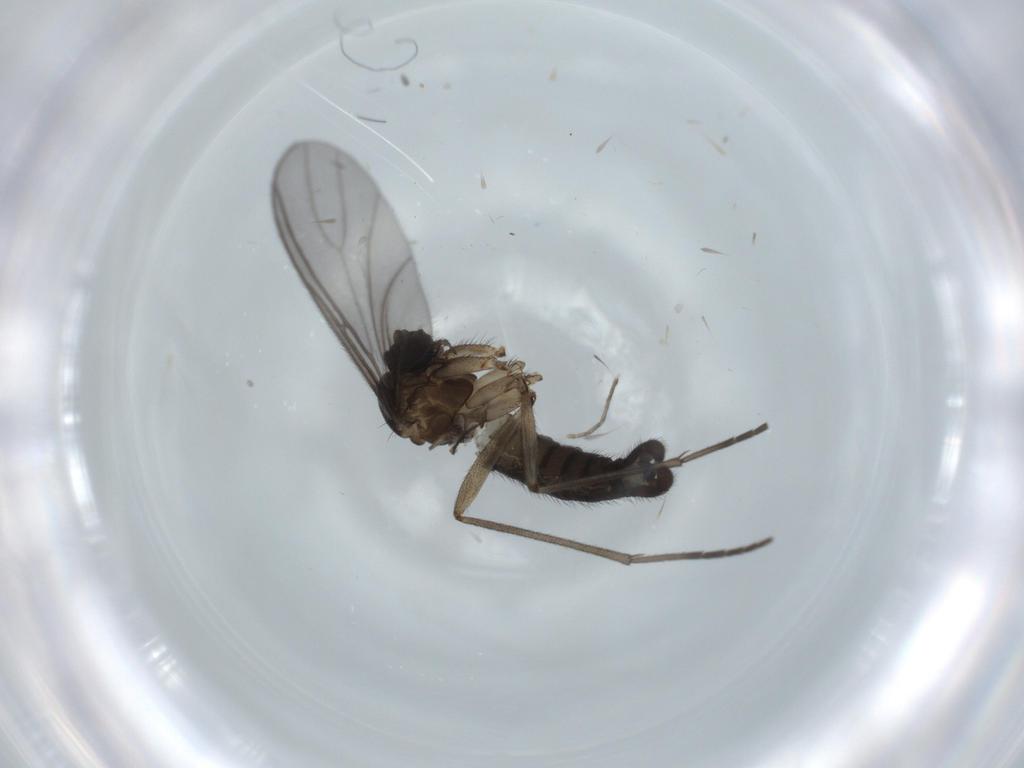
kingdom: Animalia
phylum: Arthropoda
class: Insecta
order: Diptera
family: Sciaridae
